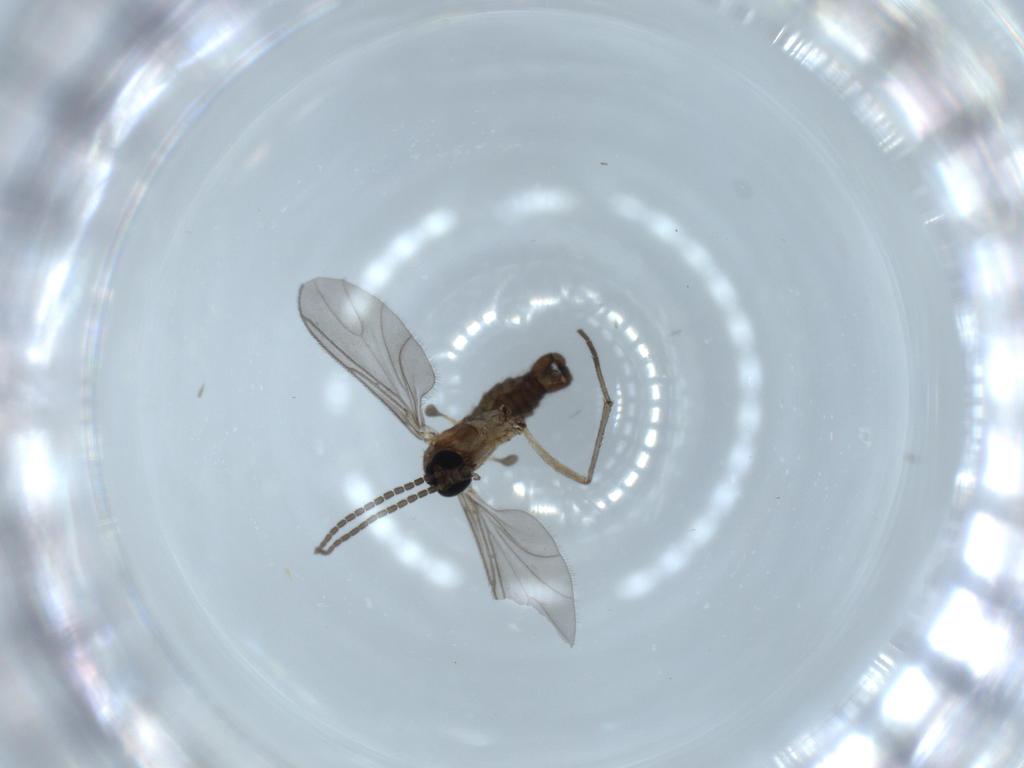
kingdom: Animalia
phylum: Arthropoda
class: Insecta
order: Diptera
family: Sciaridae
